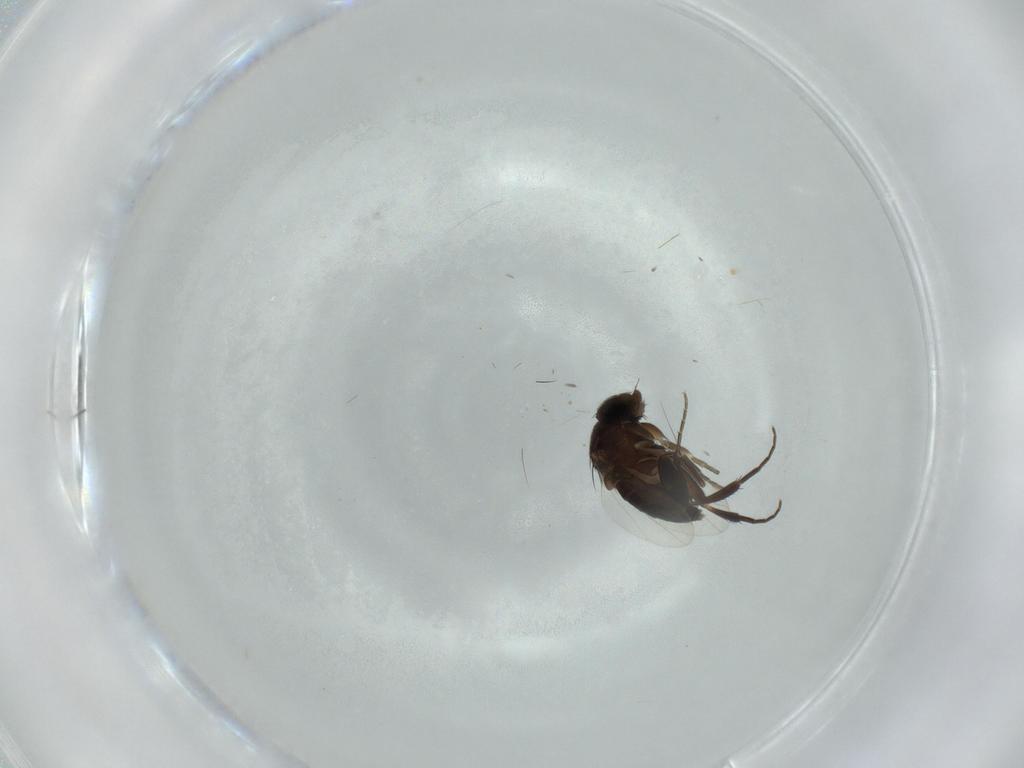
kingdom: Animalia
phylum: Arthropoda
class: Insecta
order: Diptera
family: Phoridae
